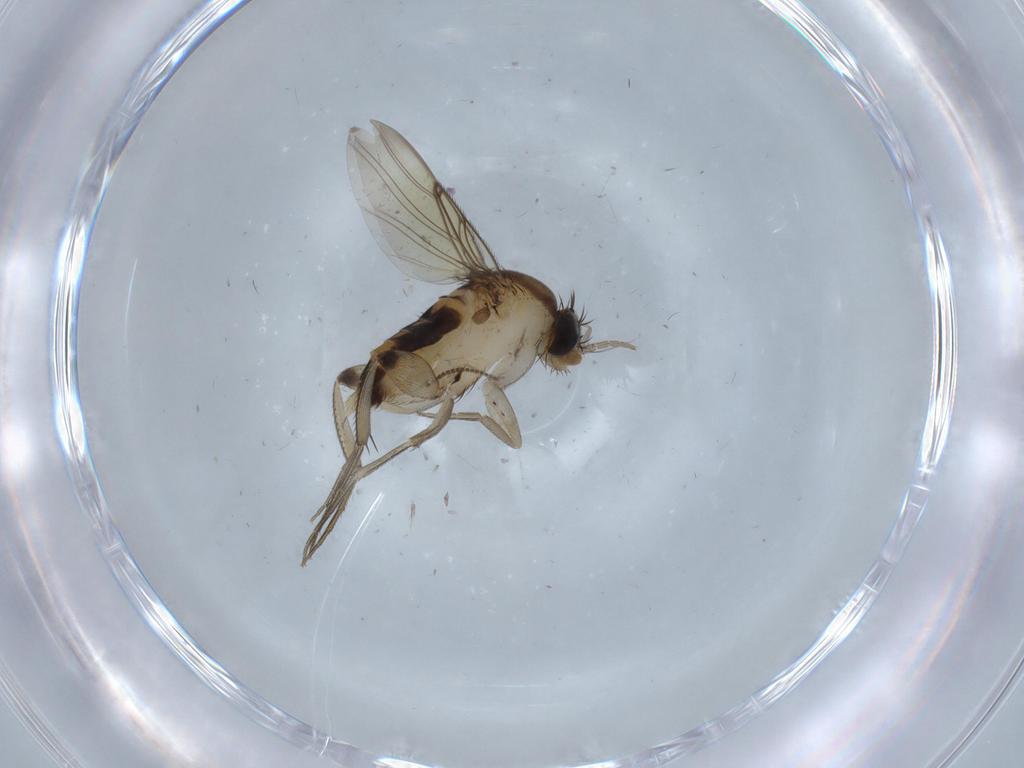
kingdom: Animalia
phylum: Arthropoda
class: Insecta
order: Diptera
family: Phoridae
